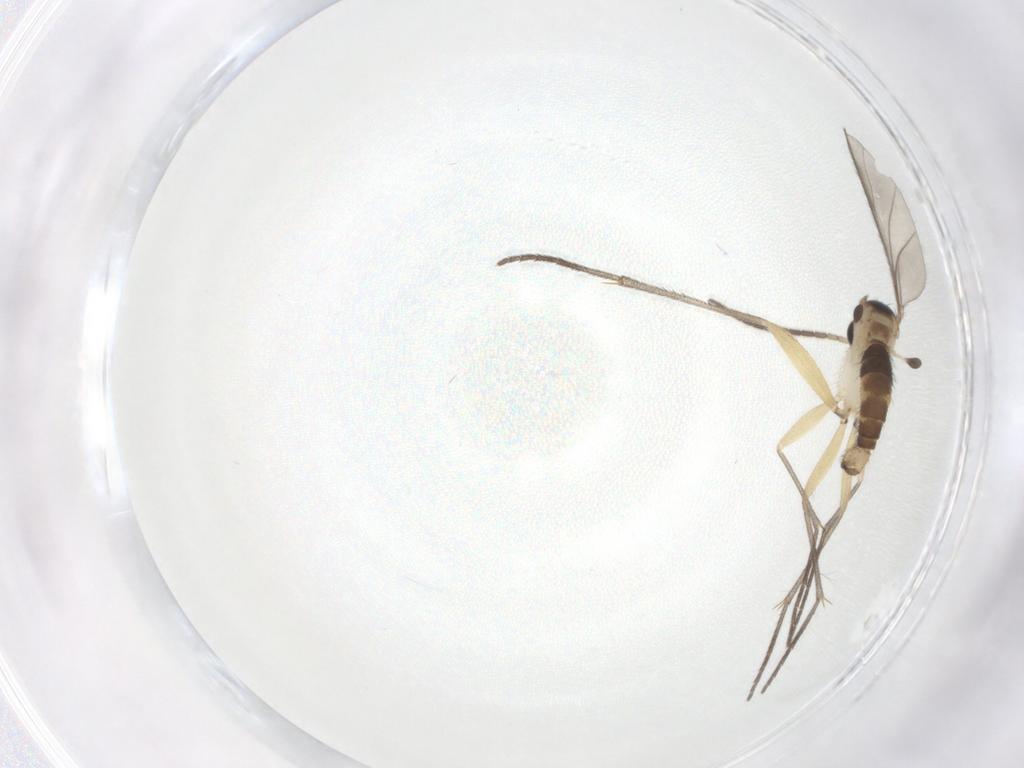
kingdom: Animalia
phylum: Arthropoda
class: Insecta
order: Diptera
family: Sciaridae
